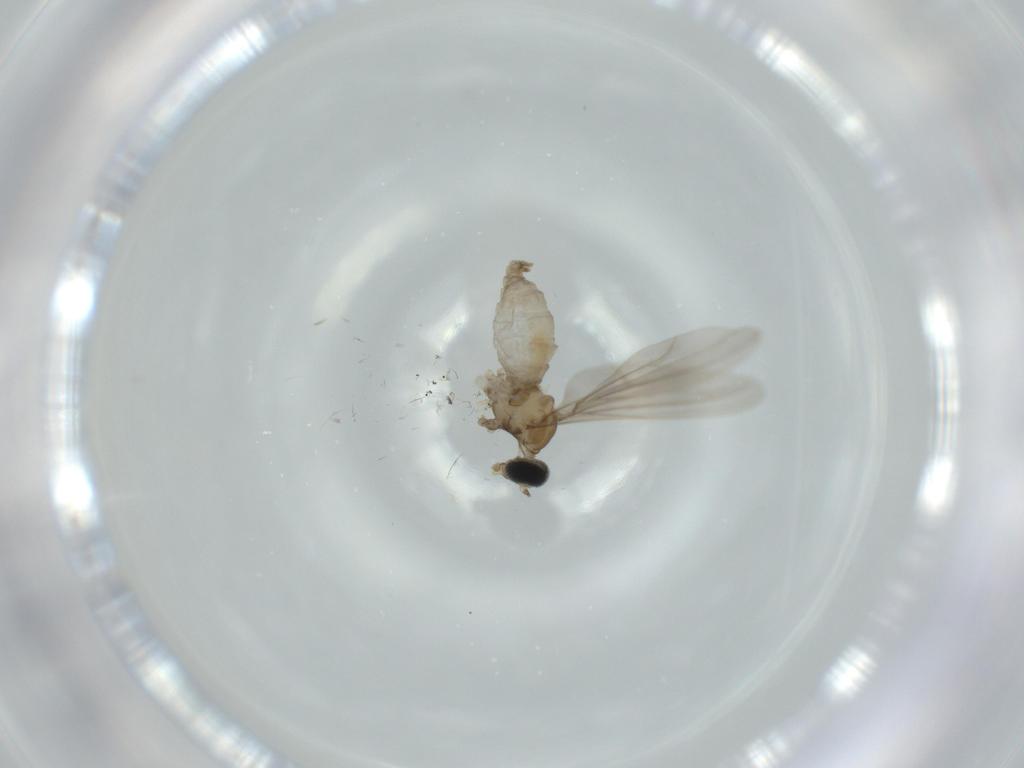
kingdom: Animalia
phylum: Arthropoda
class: Insecta
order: Diptera
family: Cecidomyiidae
